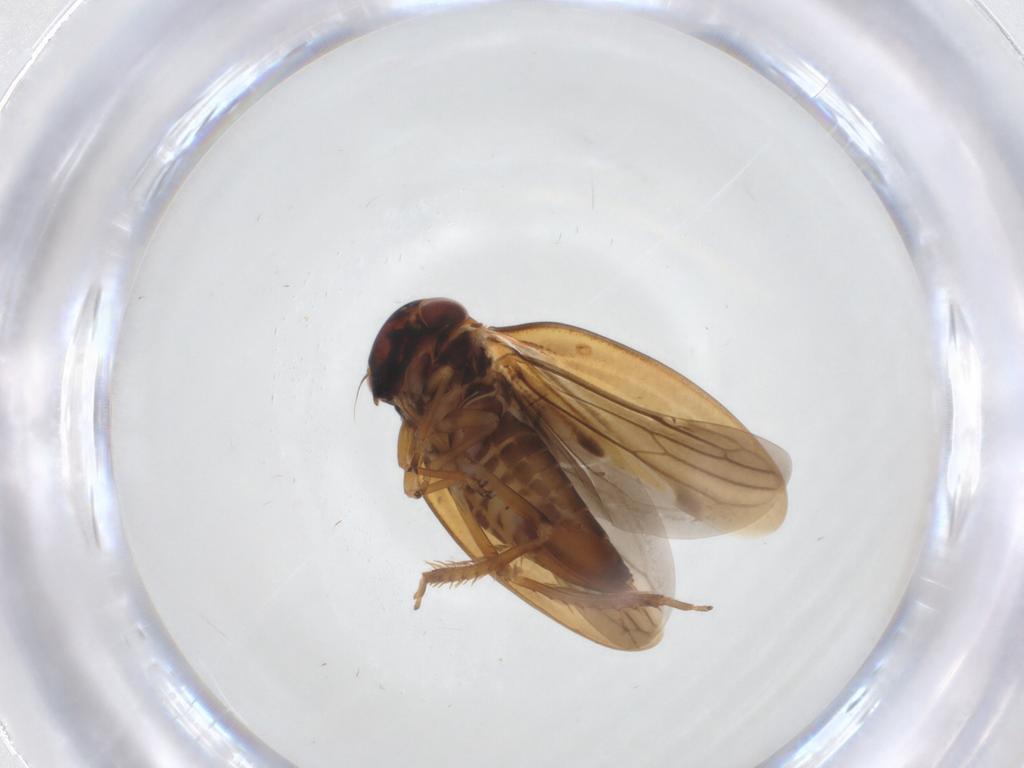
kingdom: Animalia
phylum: Arthropoda
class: Insecta
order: Hemiptera
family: Cicadellidae
